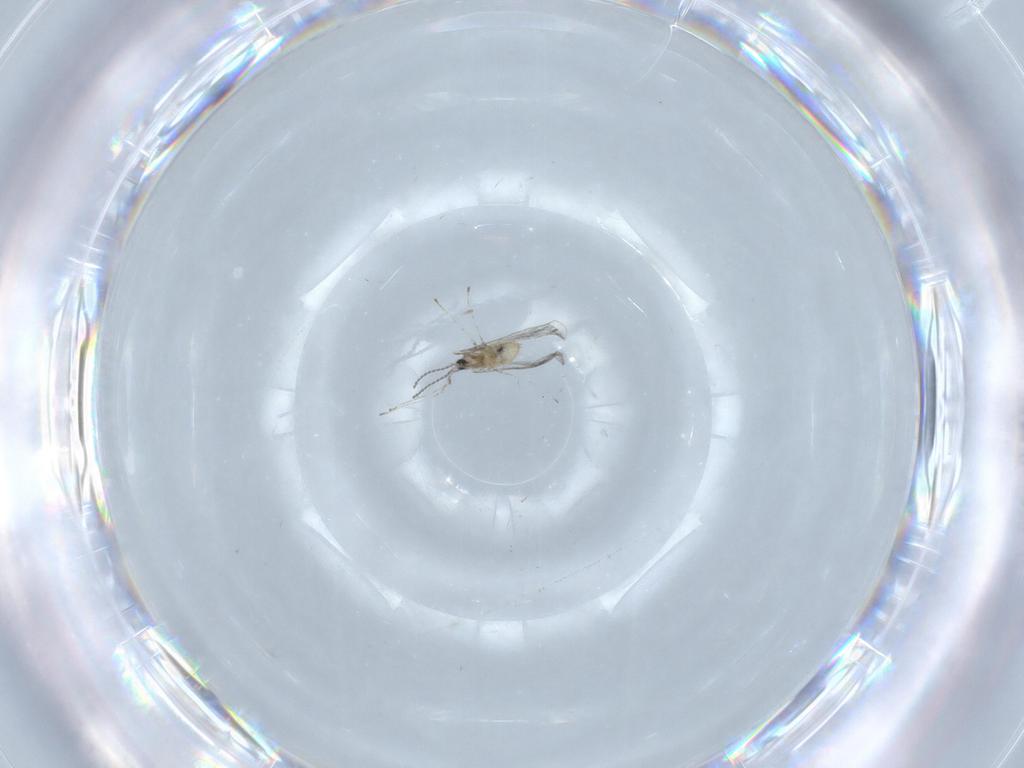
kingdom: Animalia
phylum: Arthropoda
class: Insecta
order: Diptera
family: Cecidomyiidae
